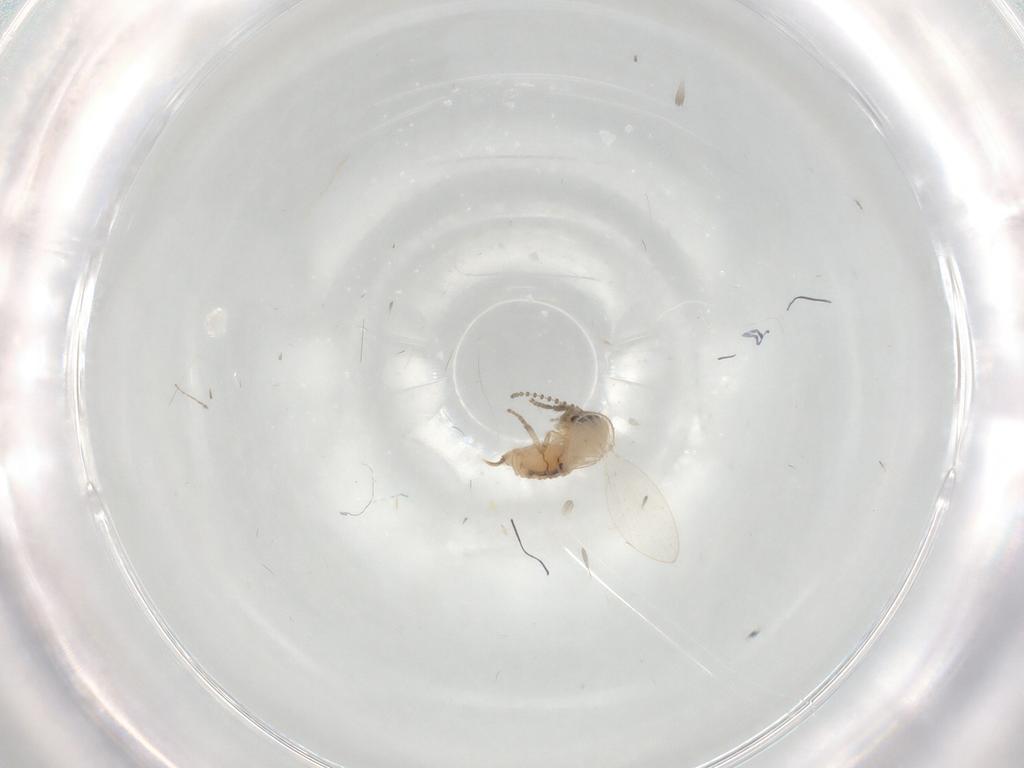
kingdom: Animalia
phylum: Arthropoda
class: Insecta
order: Diptera
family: Psychodidae
